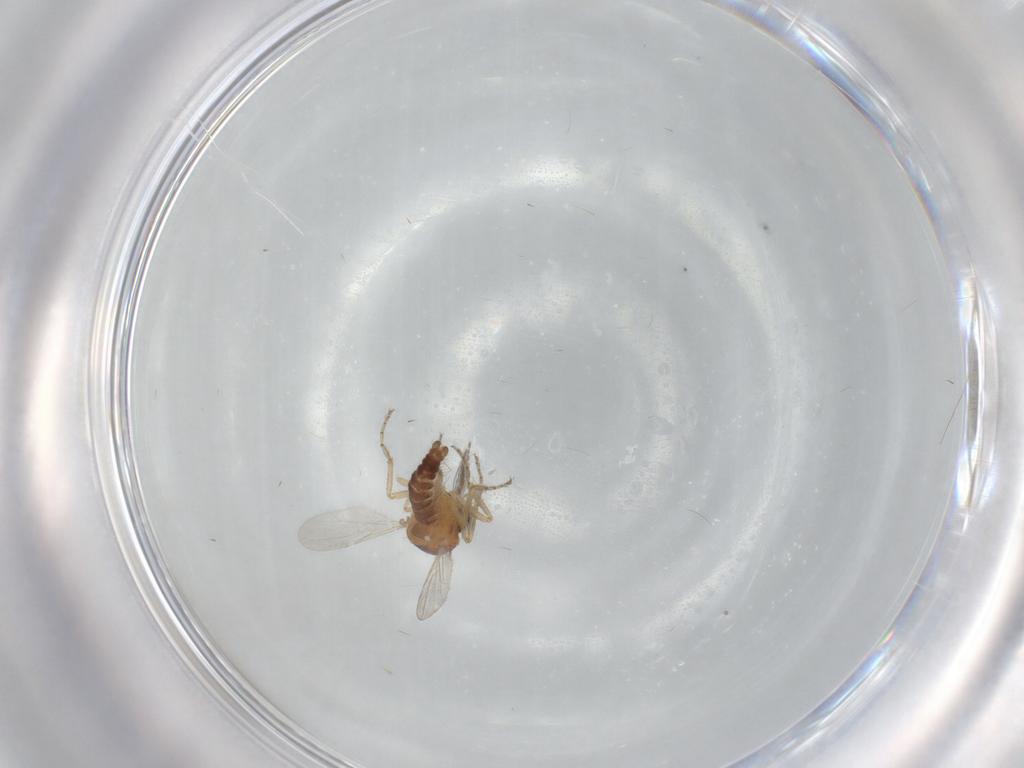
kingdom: Animalia
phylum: Arthropoda
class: Insecta
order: Diptera
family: Ceratopogonidae
